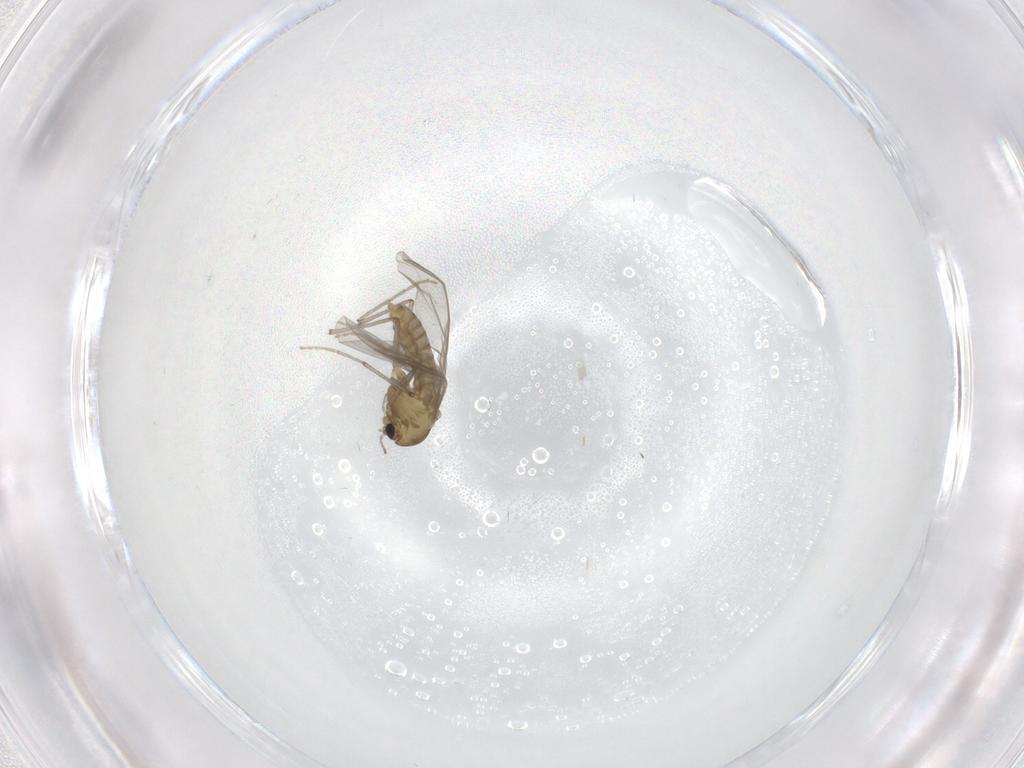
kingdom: Animalia
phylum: Arthropoda
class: Insecta
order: Diptera
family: Chironomidae
